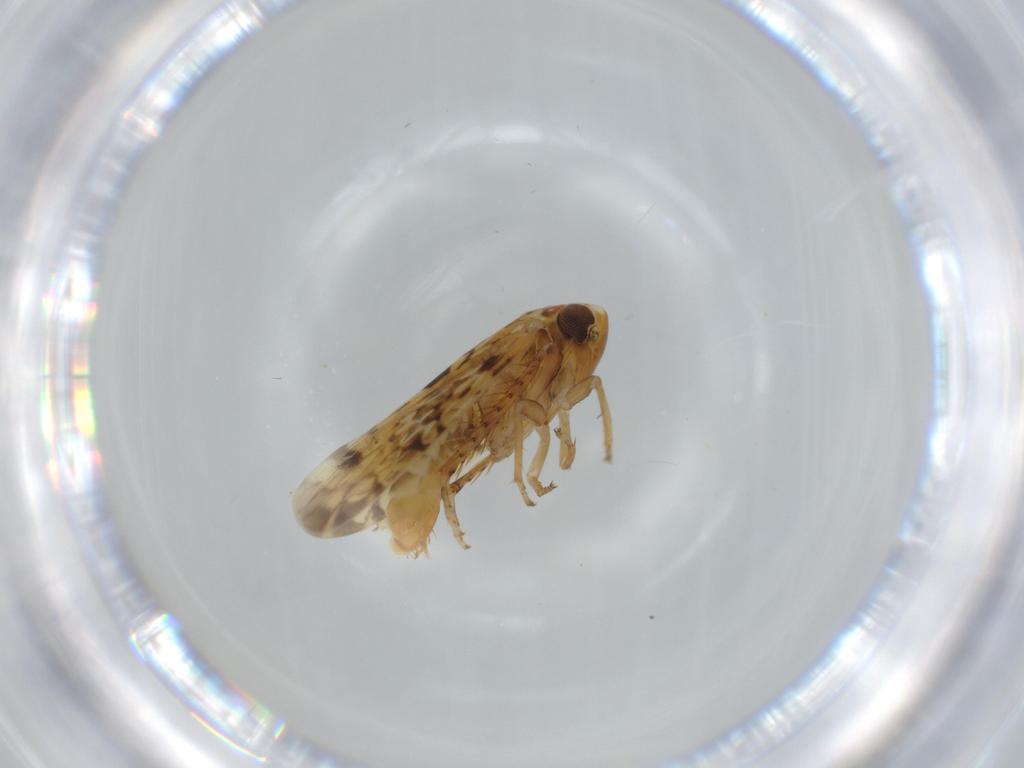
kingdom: Animalia
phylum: Arthropoda
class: Insecta
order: Hemiptera
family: Cicadellidae
